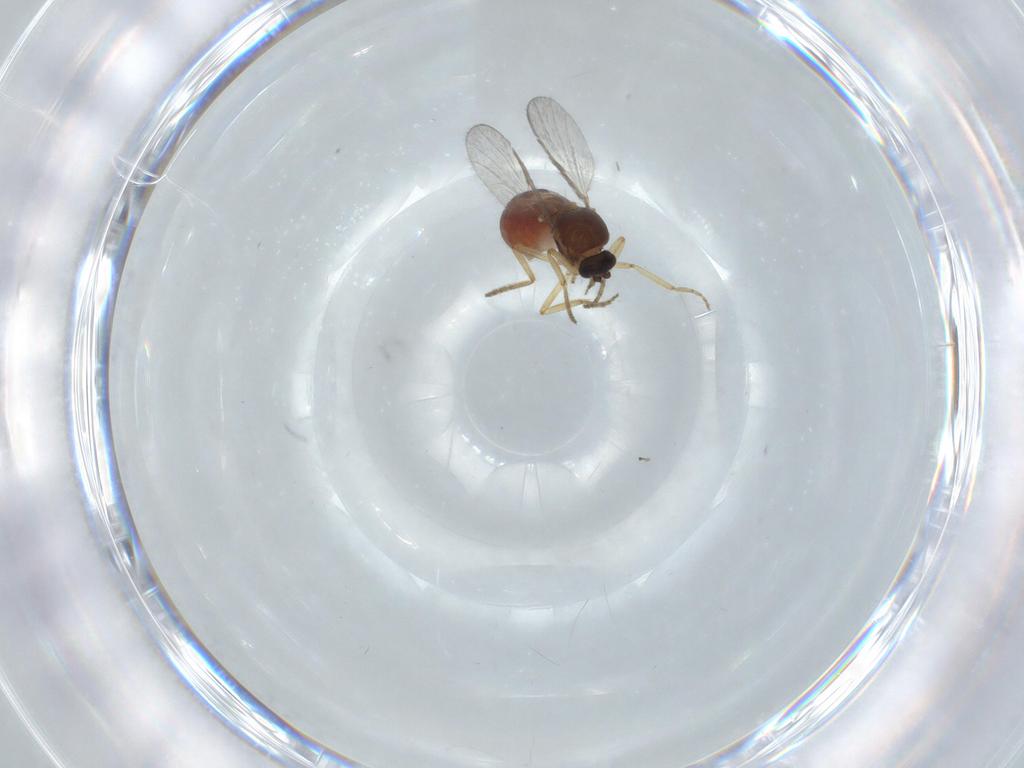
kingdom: Animalia
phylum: Arthropoda
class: Insecta
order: Diptera
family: Ceratopogonidae
